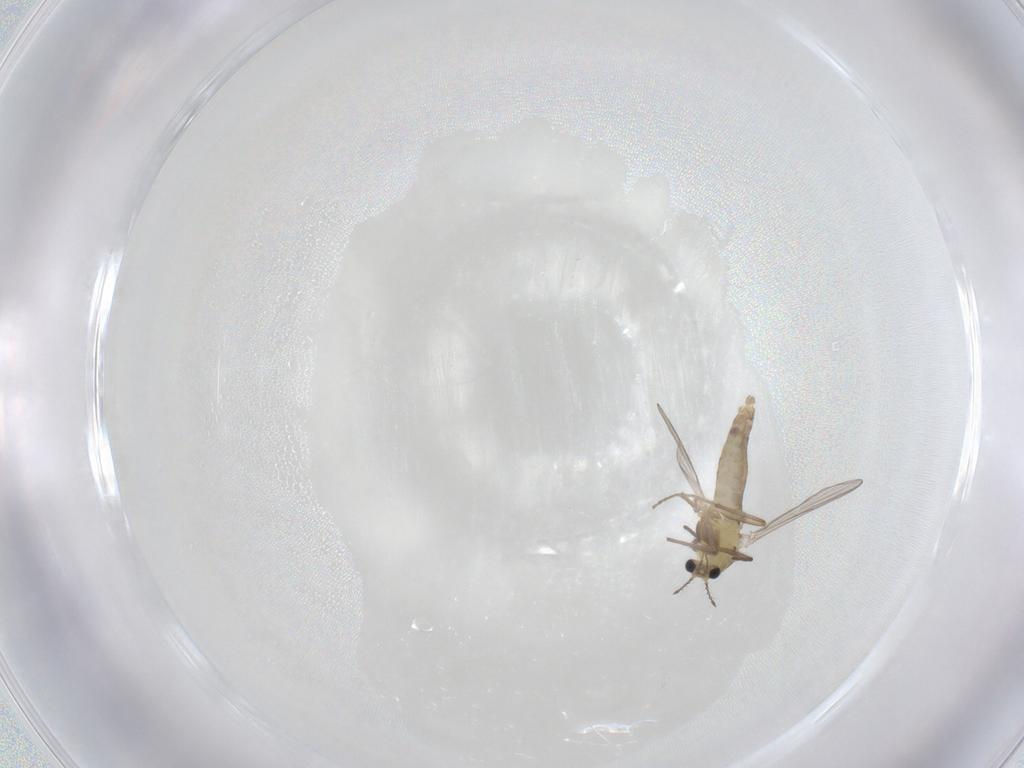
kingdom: Animalia
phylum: Arthropoda
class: Insecta
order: Diptera
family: Chironomidae
